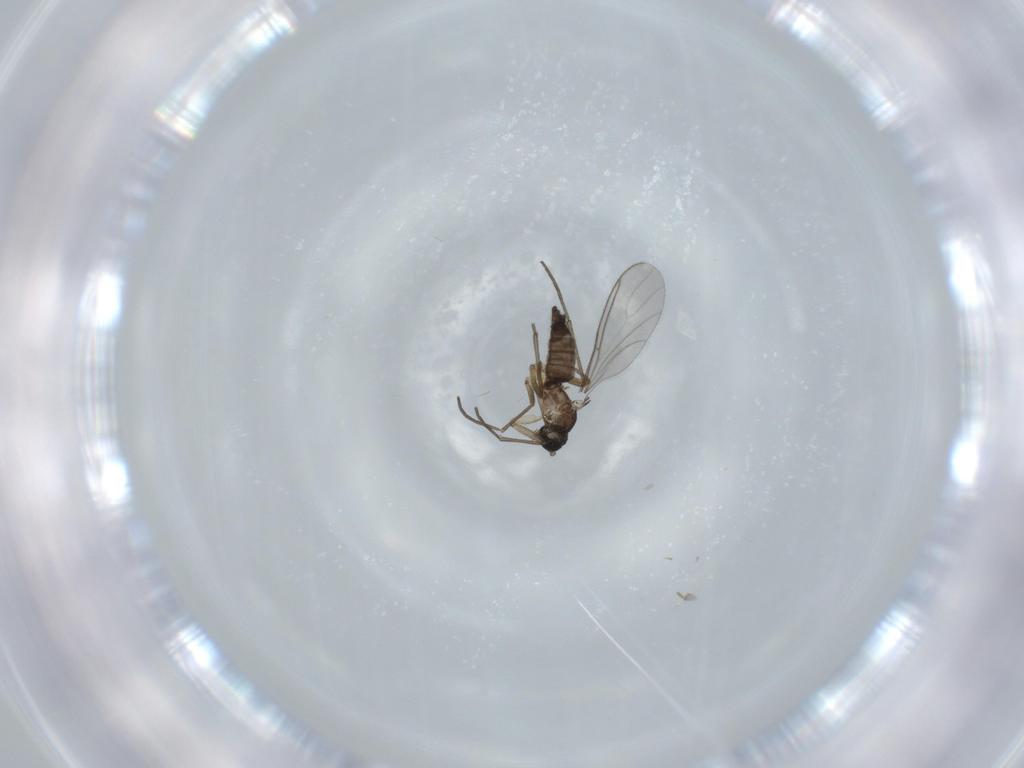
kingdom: Animalia
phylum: Arthropoda
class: Insecta
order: Diptera
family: Sciaridae
